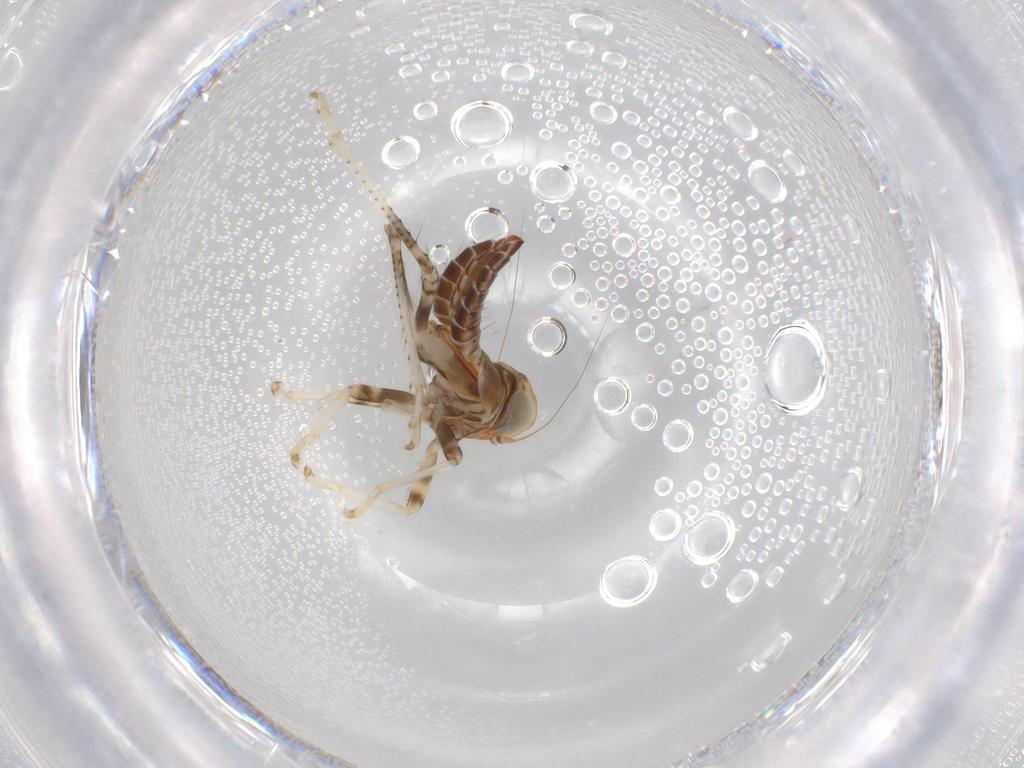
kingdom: Animalia
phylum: Arthropoda
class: Insecta
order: Hemiptera
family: Cicadellidae
